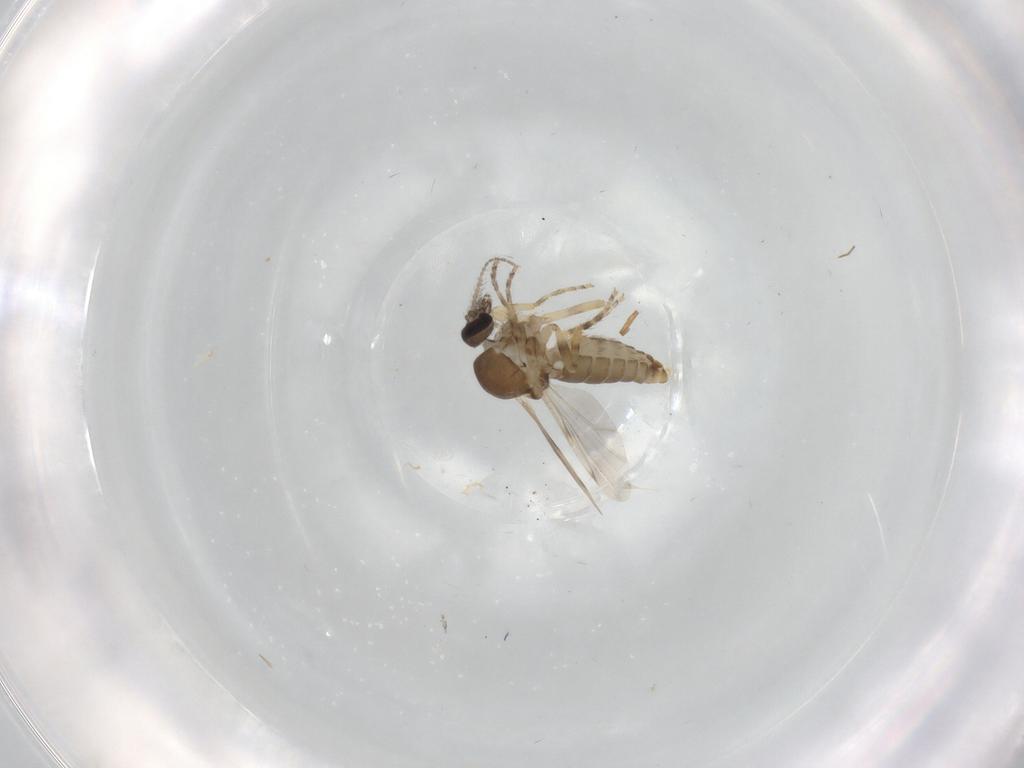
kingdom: Animalia
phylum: Arthropoda
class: Insecta
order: Diptera
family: Ceratopogonidae
